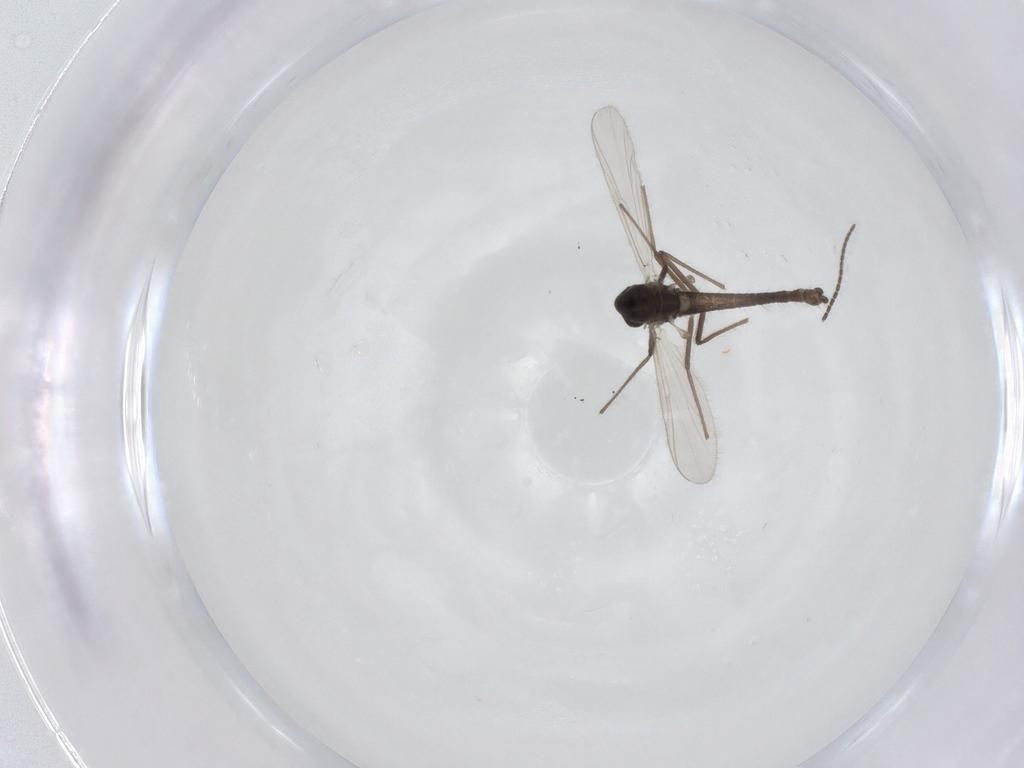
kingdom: Animalia
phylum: Arthropoda
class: Insecta
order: Diptera
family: Chironomidae
